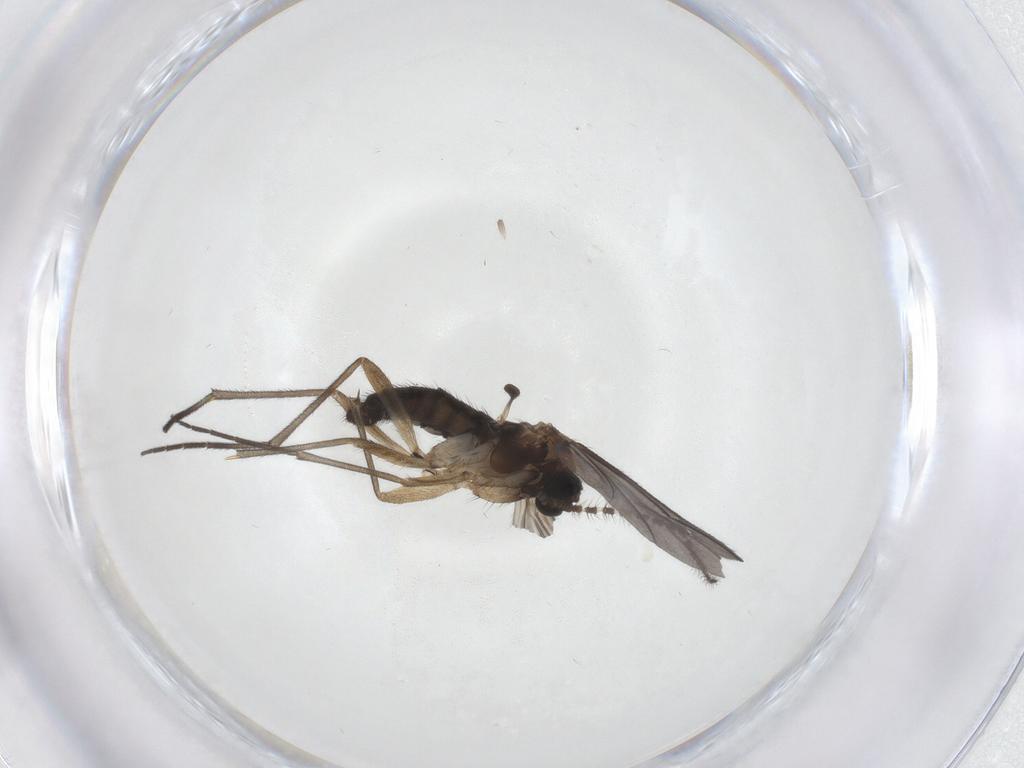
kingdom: Animalia
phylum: Arthropoda
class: Insecta
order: Diptera
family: Sciaridae
